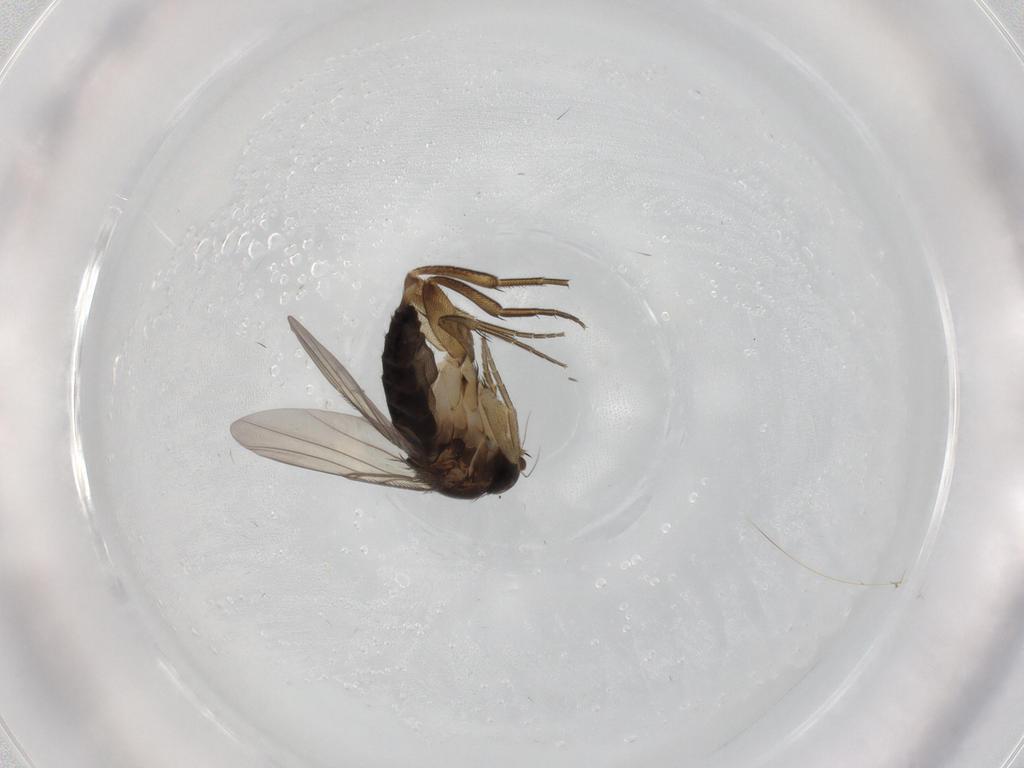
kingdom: Animalia
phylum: Arthropoda
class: Insecta
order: Diptera
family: Phoridae
